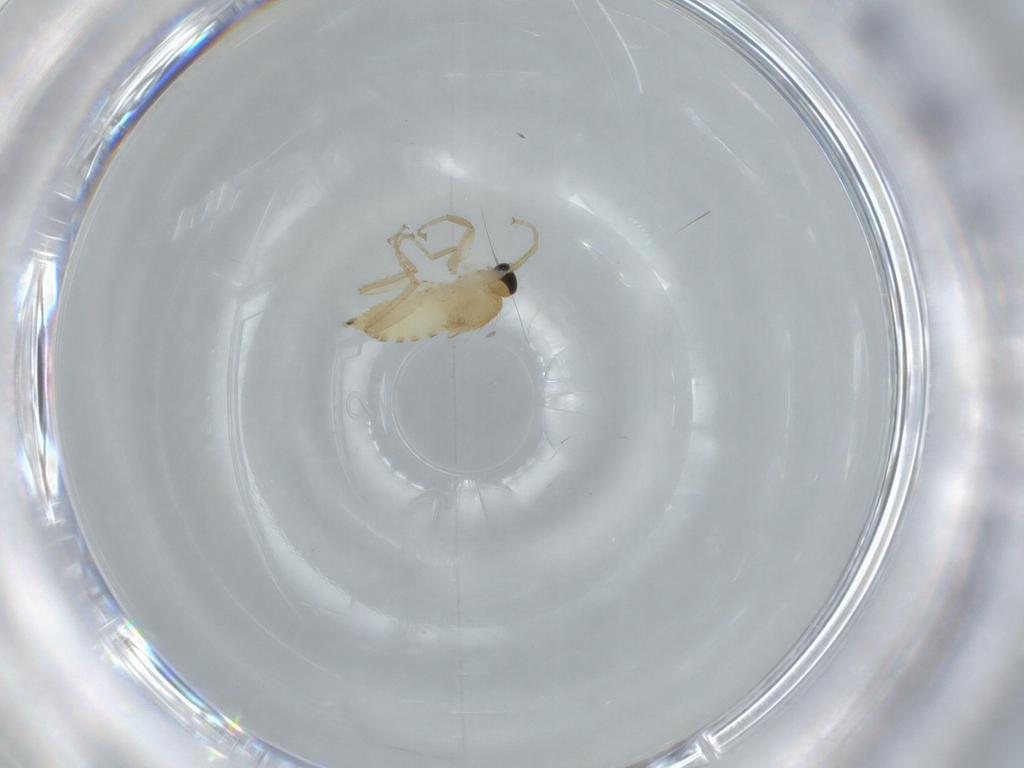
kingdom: Animalia
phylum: Arthropoda
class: Insecta
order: Diptera
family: Hybotidae
